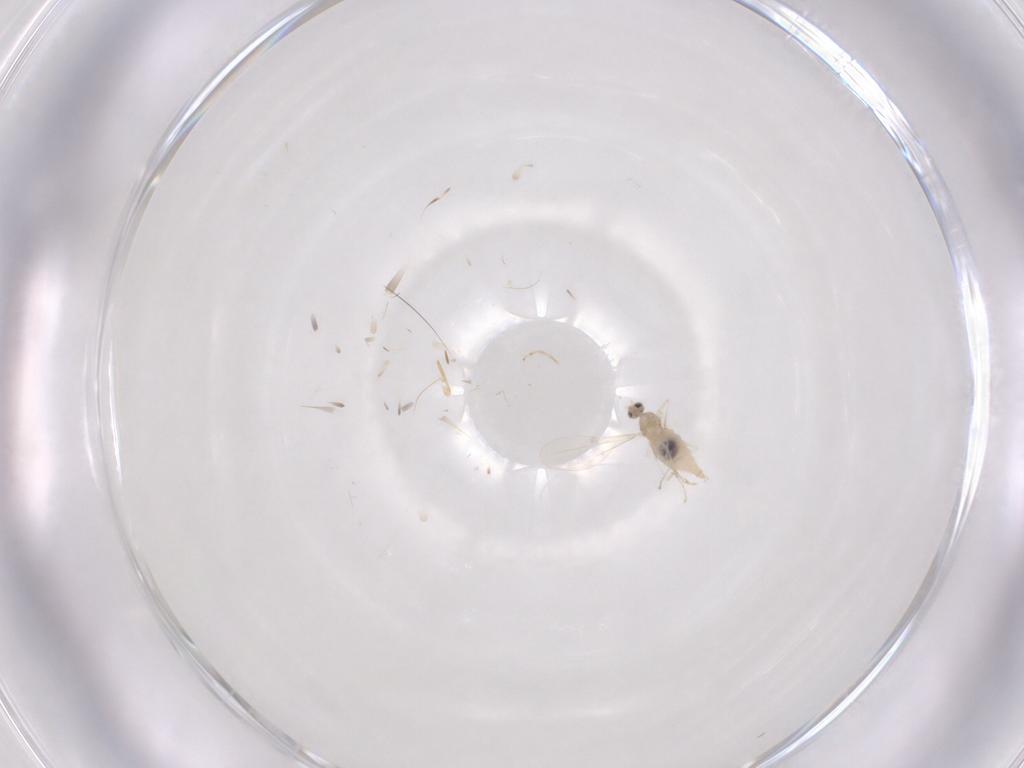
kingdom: Animalia
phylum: Arthropoda
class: Insecta
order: Diptera
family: Cecidomyiidae
